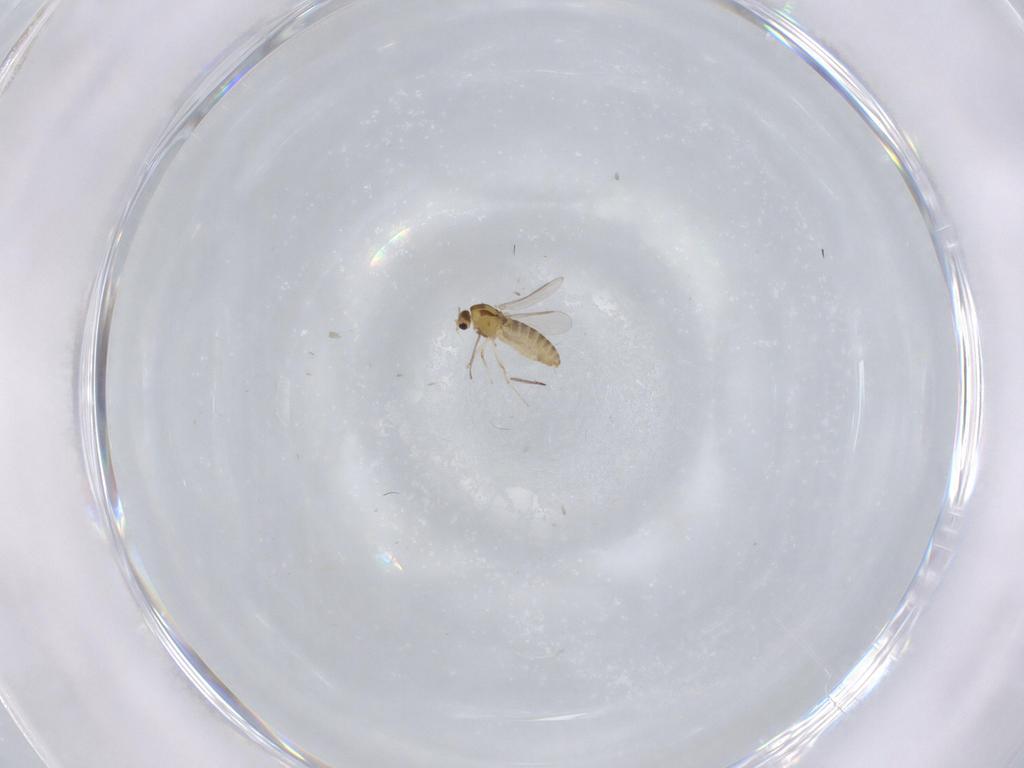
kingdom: Animalia
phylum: Arthropoda
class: Insecta
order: Diptera
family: Chironomidae
